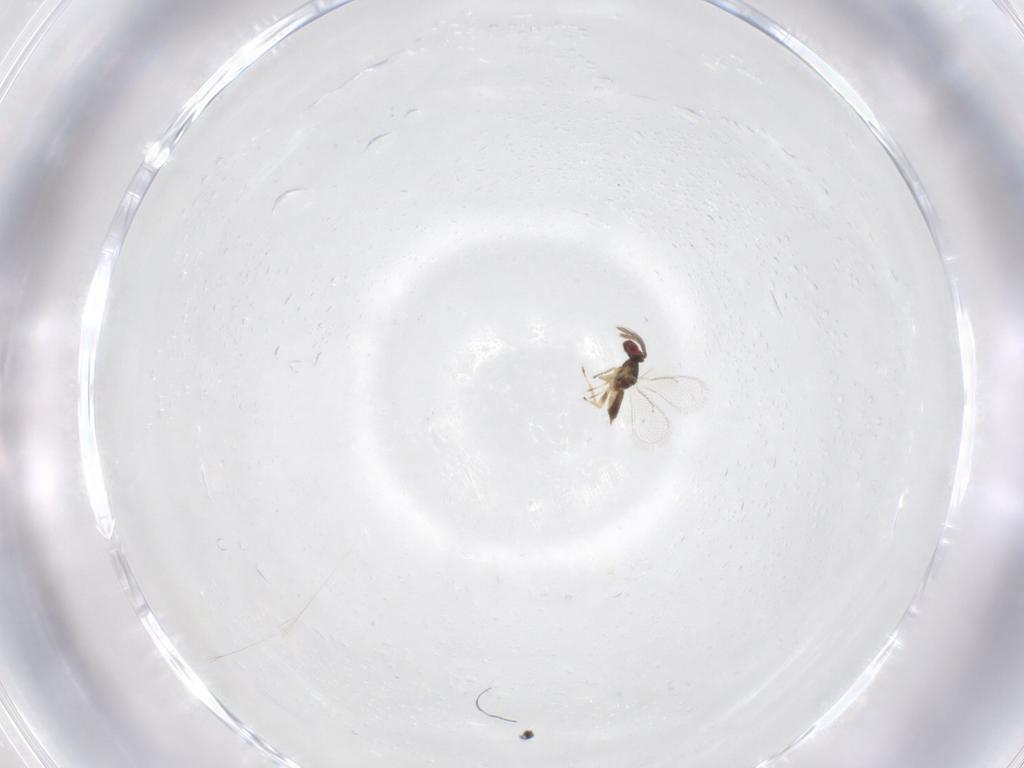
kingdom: Animalia
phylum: Arthropoda
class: Insecta
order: Hymenoptera
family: Eulophidae
